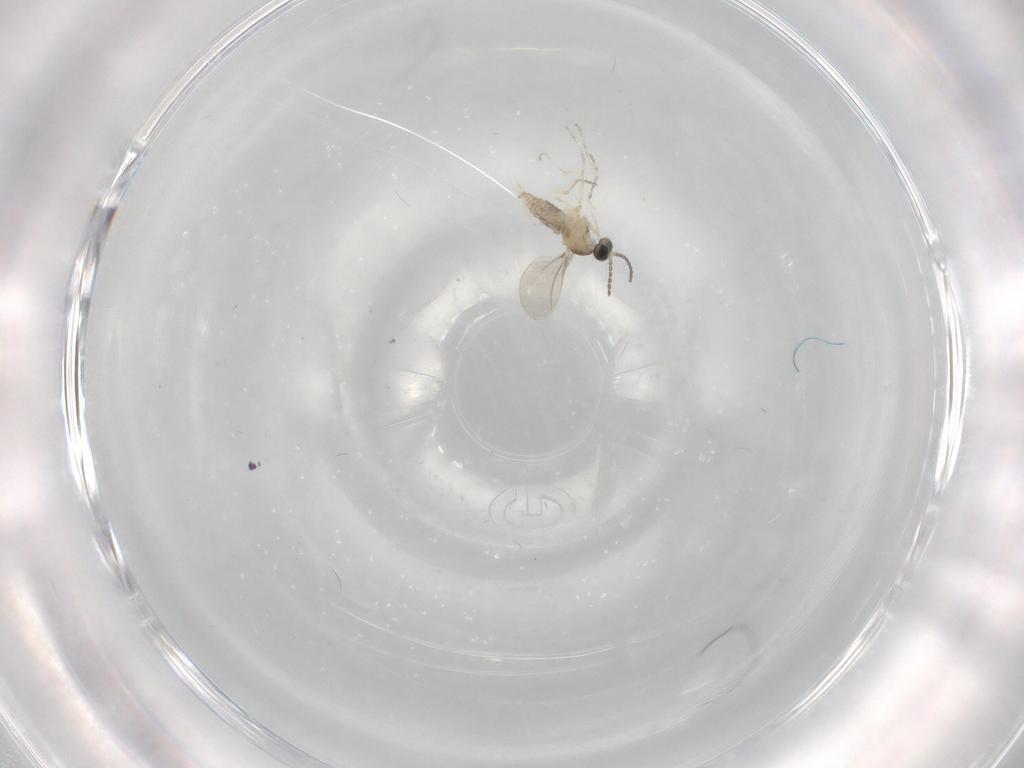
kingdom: Animalia
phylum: Arthropoda
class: Insecta
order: Diptera
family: Cecidomyiidae
